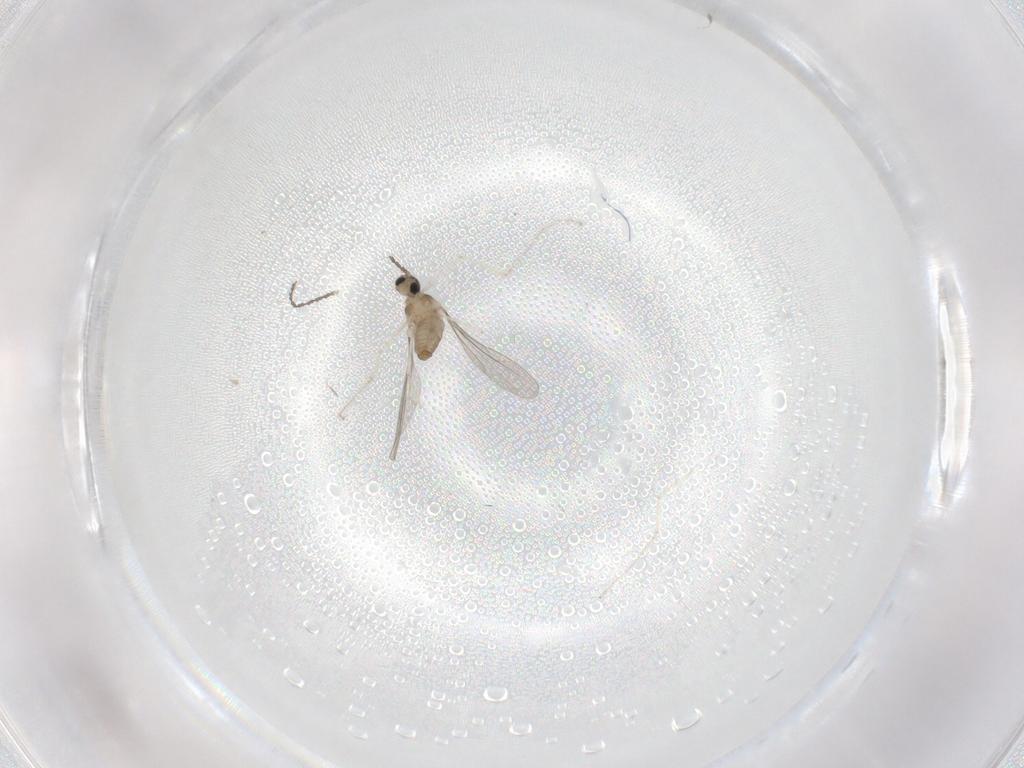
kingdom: Animalia
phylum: Arthropoda
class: Insecta
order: Diptera
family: Cecidomyiidae
